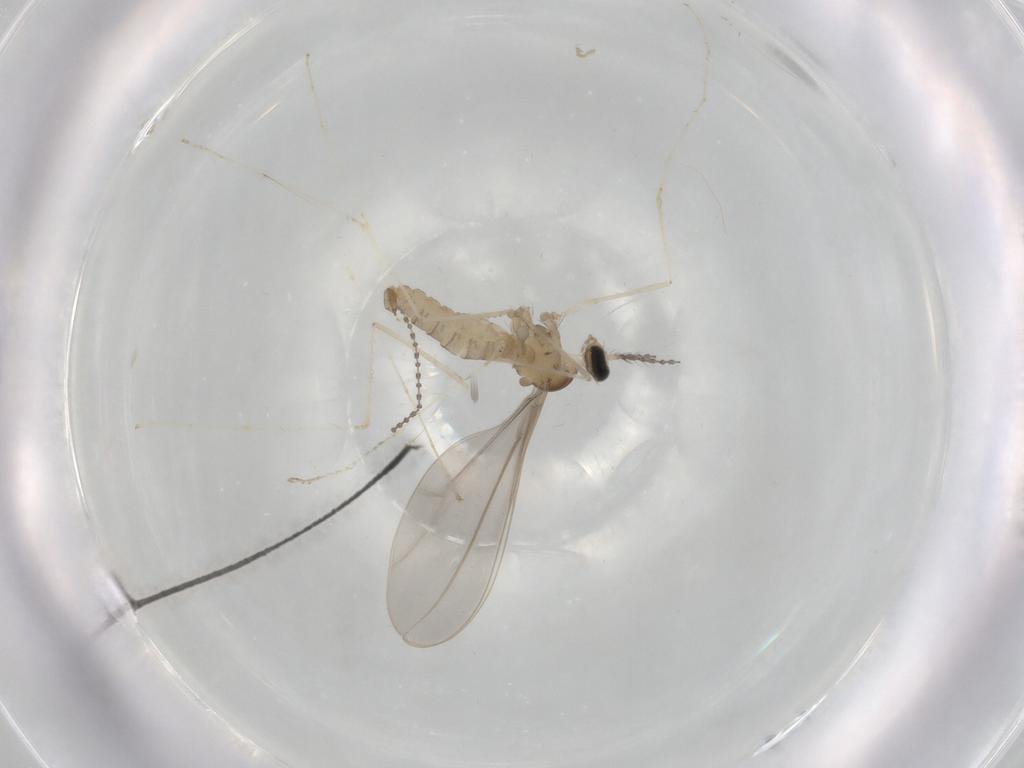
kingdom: Animalia
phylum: Arthropoda
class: Insecta
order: Diptera
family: Cecidomyiidae
